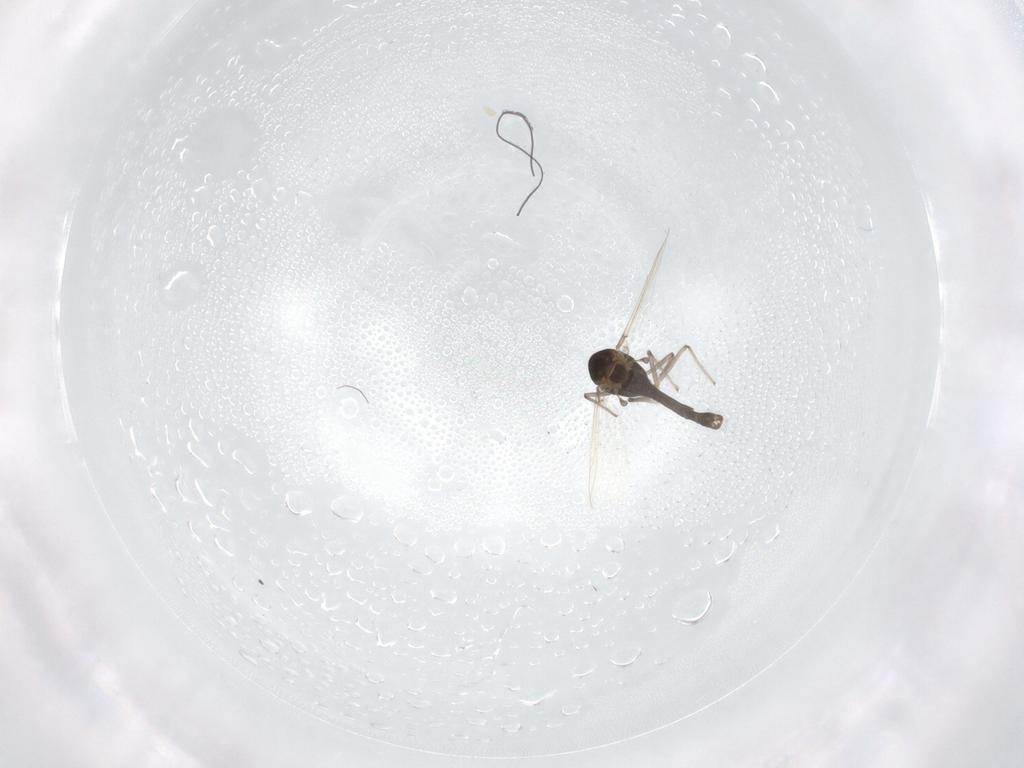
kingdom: Animalia
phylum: Arthropoda
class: Insecta
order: Diptera
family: Chironomidae
